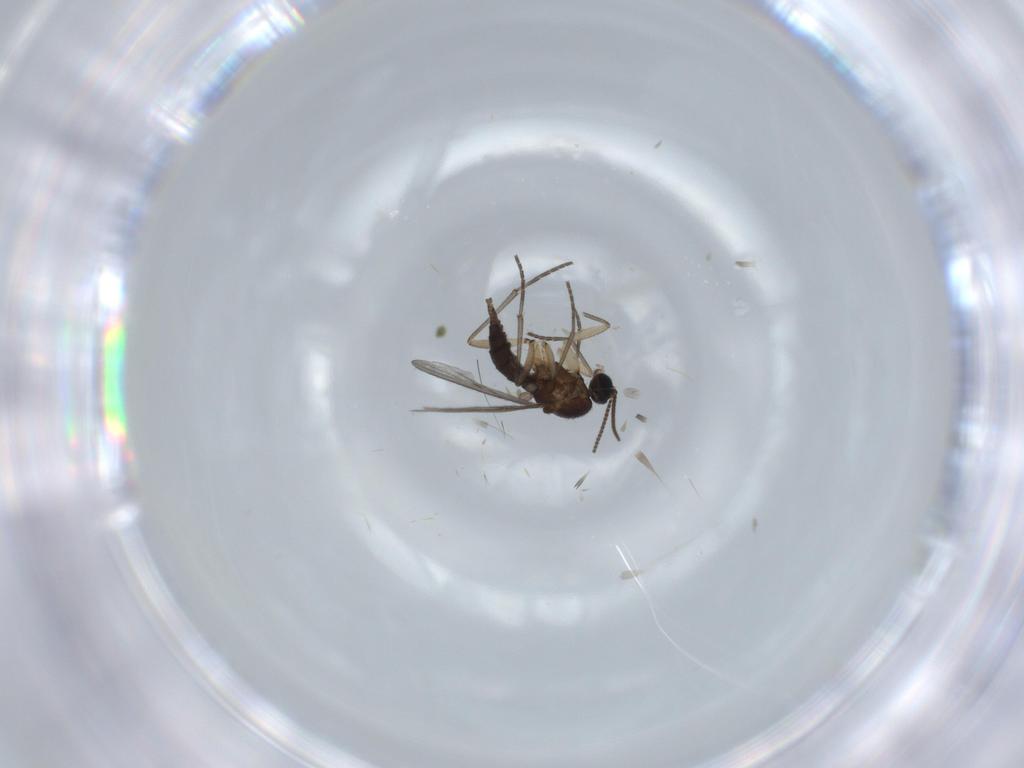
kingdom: Animalia
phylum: Arthropoda
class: Insecta
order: Diptera
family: Sciaridae
